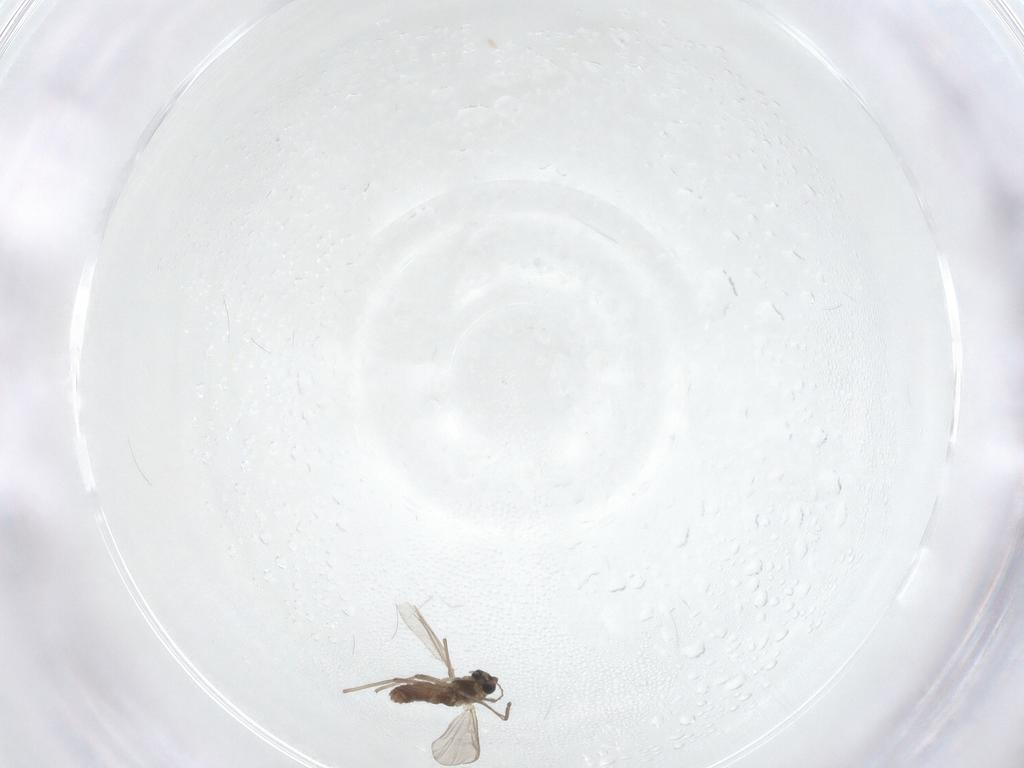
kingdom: Animalia
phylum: Arthropoda
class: Insecta
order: Diptera
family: Chironomidae
